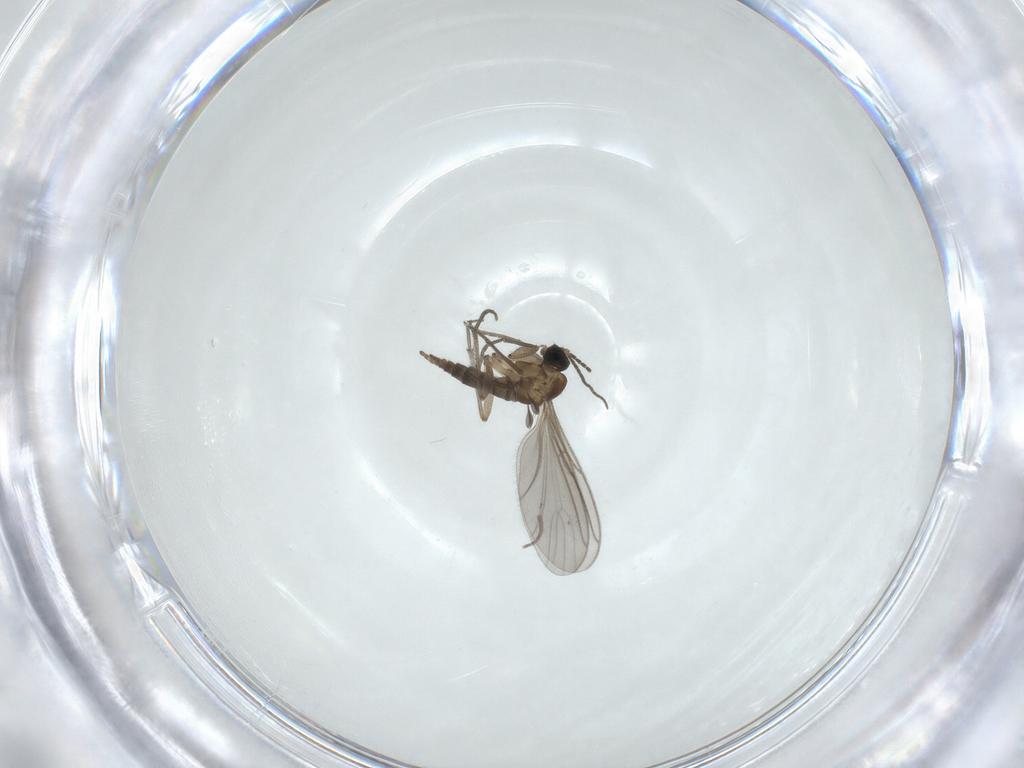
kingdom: Animalia
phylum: Arthropoda
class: Insecta
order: Diptera
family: Sciaridae
